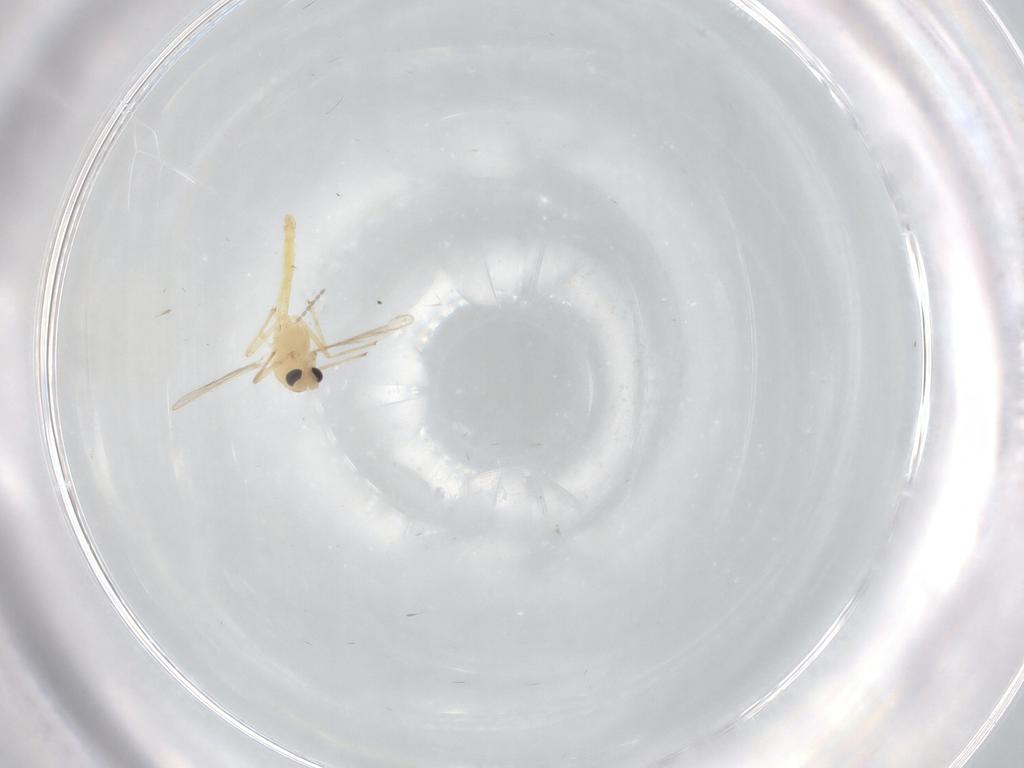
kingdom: Animalia
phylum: Arthropoda
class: Insecta
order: Diptera
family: Chironomidae
